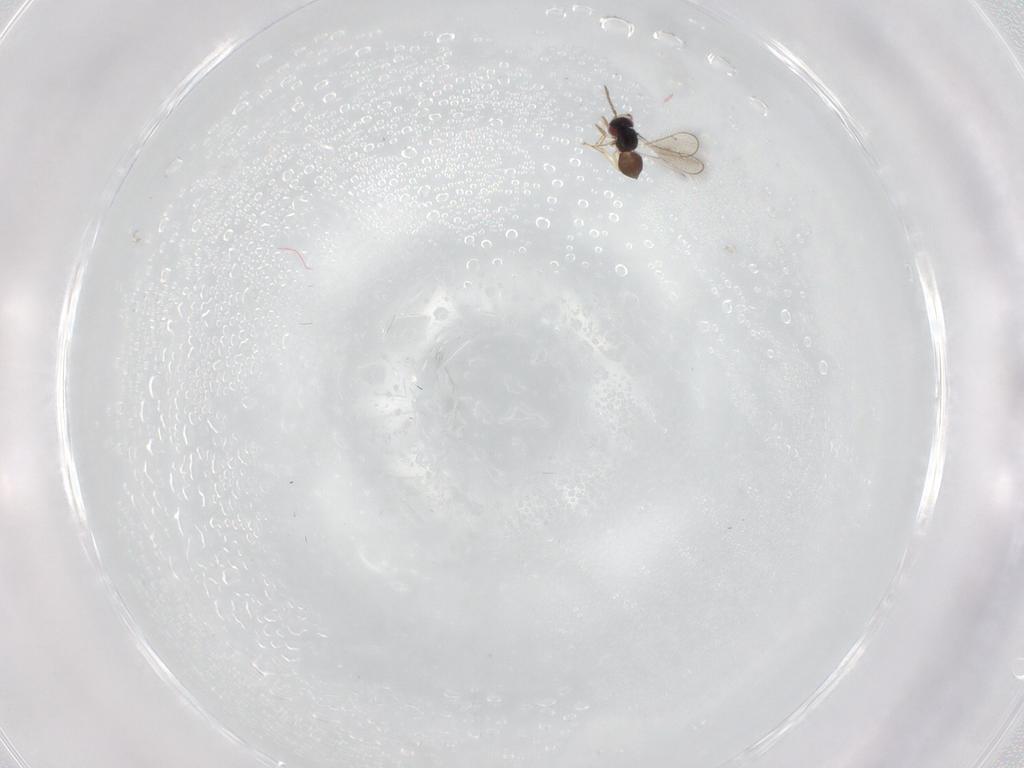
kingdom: Animalia
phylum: Arthropoda
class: Insecta
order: Hymenoptera
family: Eulophidae
